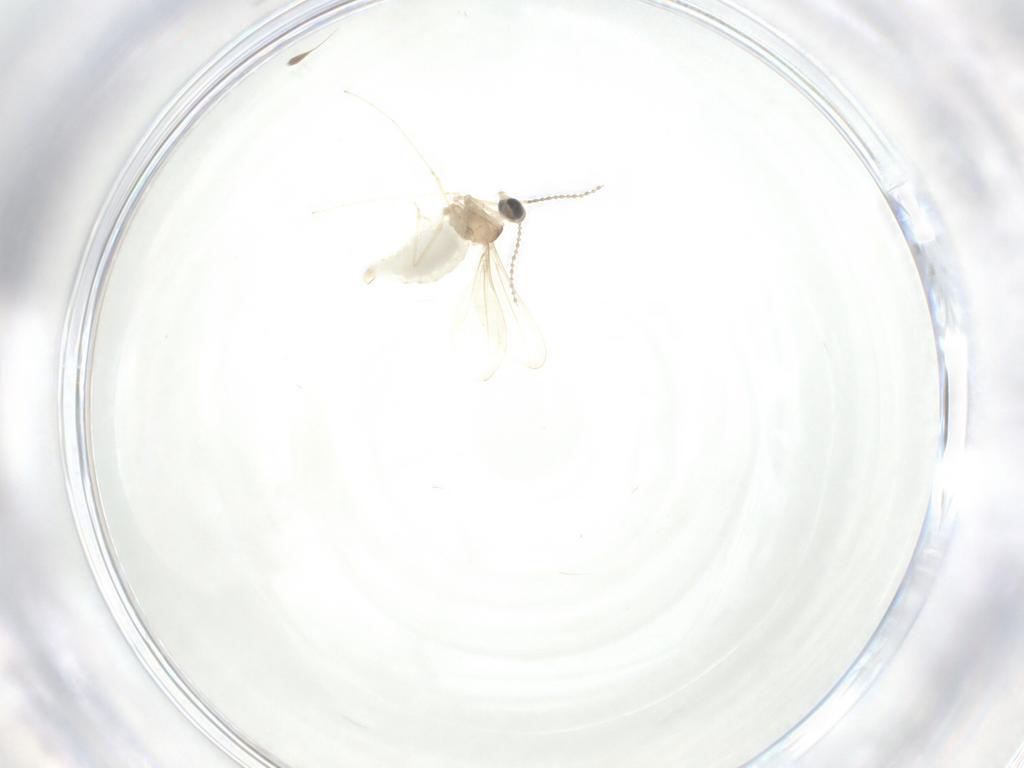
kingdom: Animalia
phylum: Arthropoda
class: Insecta
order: Diptera
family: Cecidomyiidae
